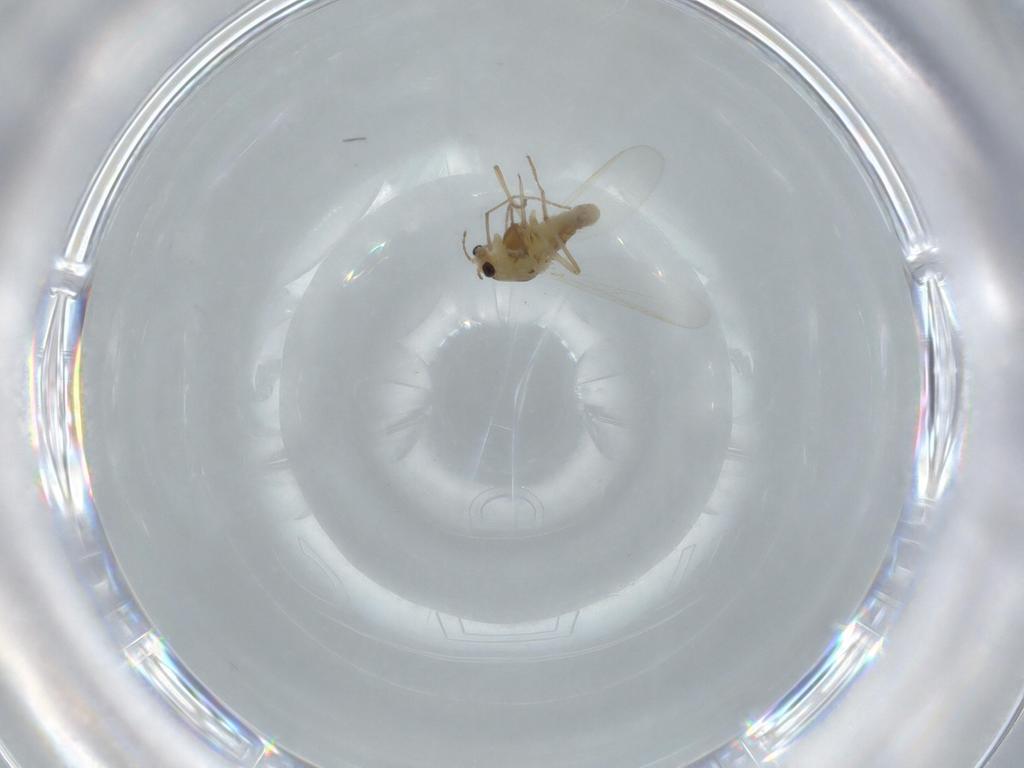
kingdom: Animalia
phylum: Arthropoda
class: Insecta
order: Diptera
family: Chironomidae
